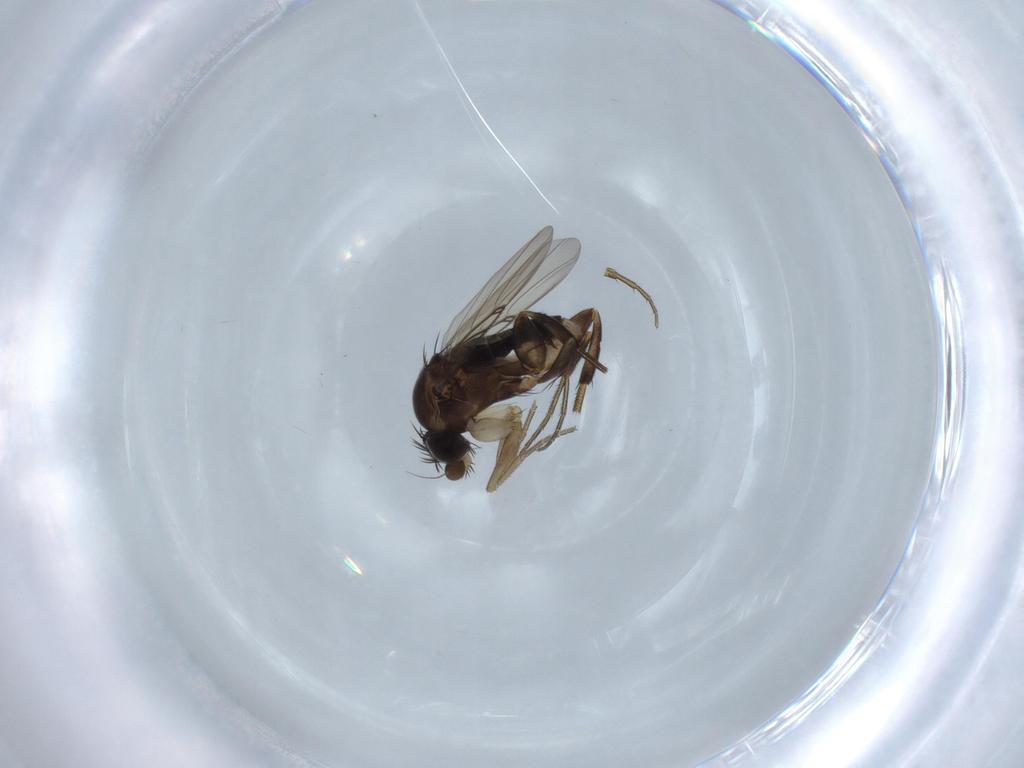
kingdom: Animalia
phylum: Arthropoda
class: Insecta
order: Diptera
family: Phoridae
